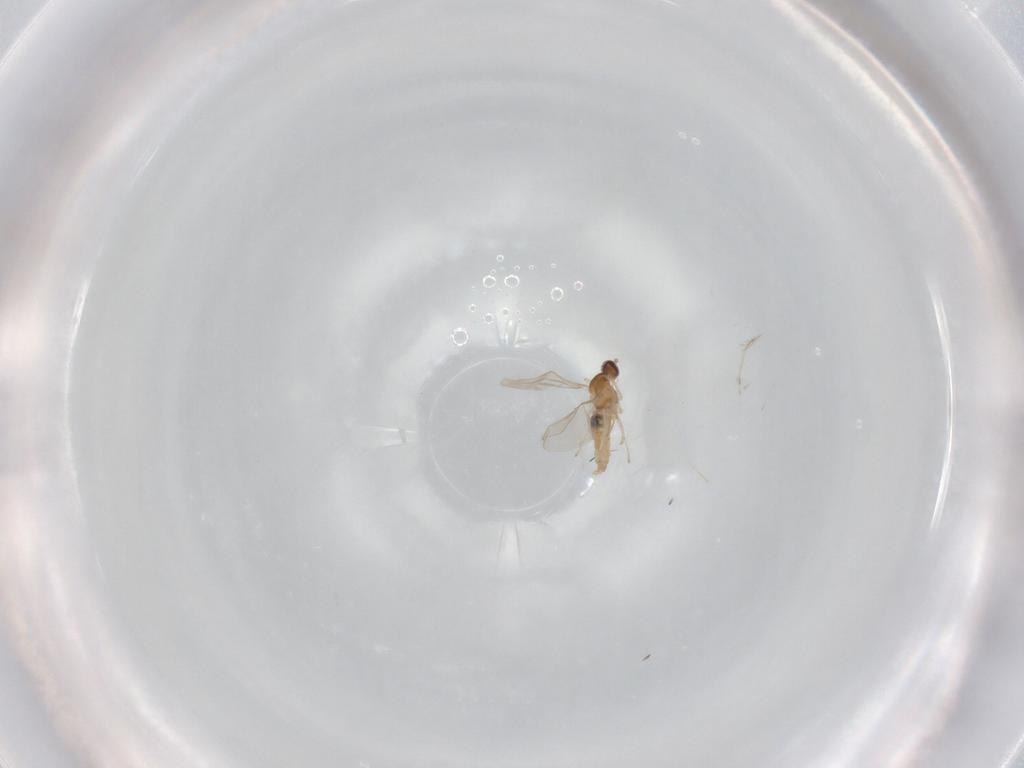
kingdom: Animalia
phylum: Arthropoda
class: Insecta
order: Diptera
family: Cecidomyiidae
